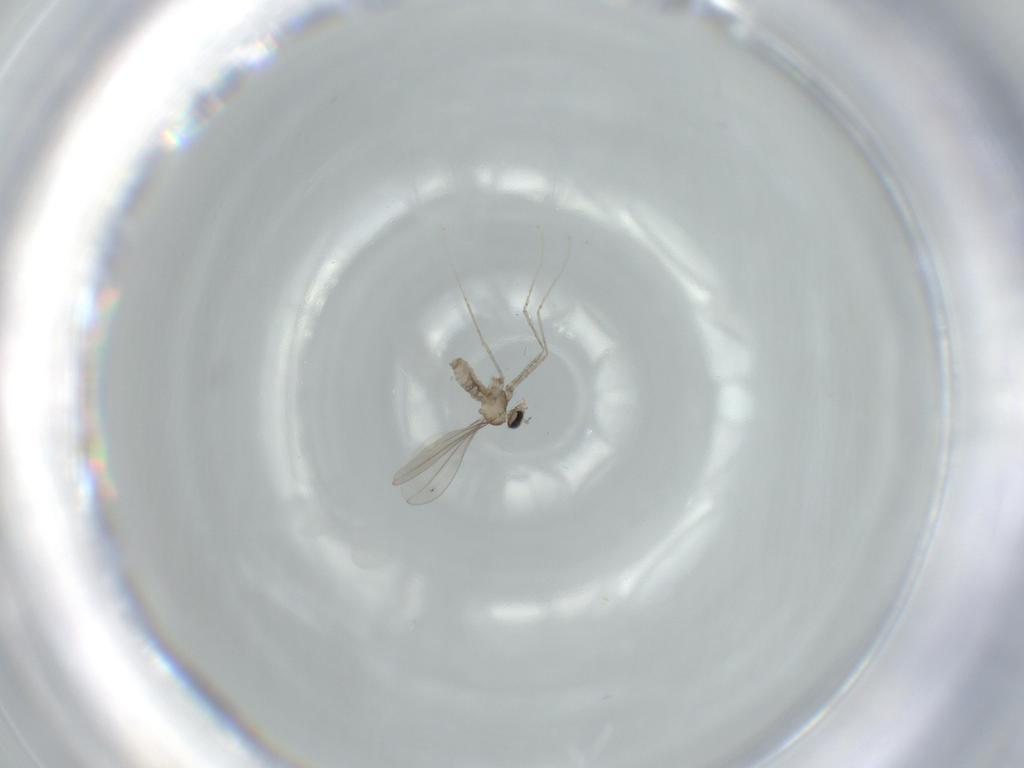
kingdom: Animalia
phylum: Arthropoda
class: Insecta
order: Diptera
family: Cecidomyiidae
